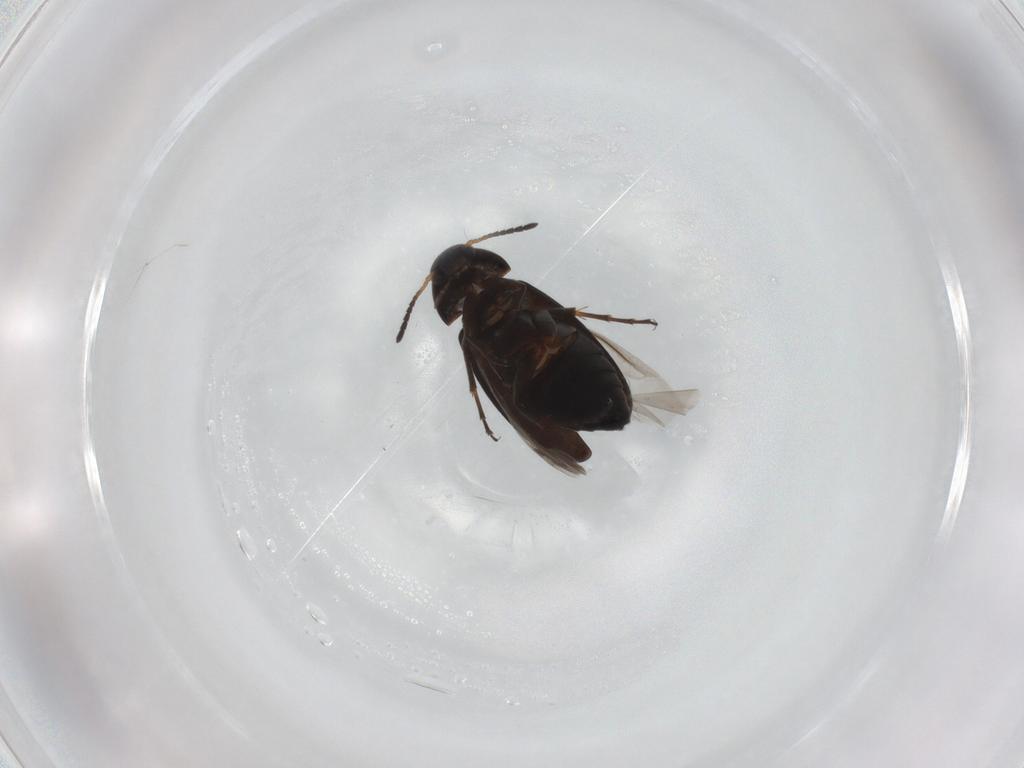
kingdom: Animalia
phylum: Arthropoda
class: Insecta
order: Coleoptera
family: Scraptiidae
